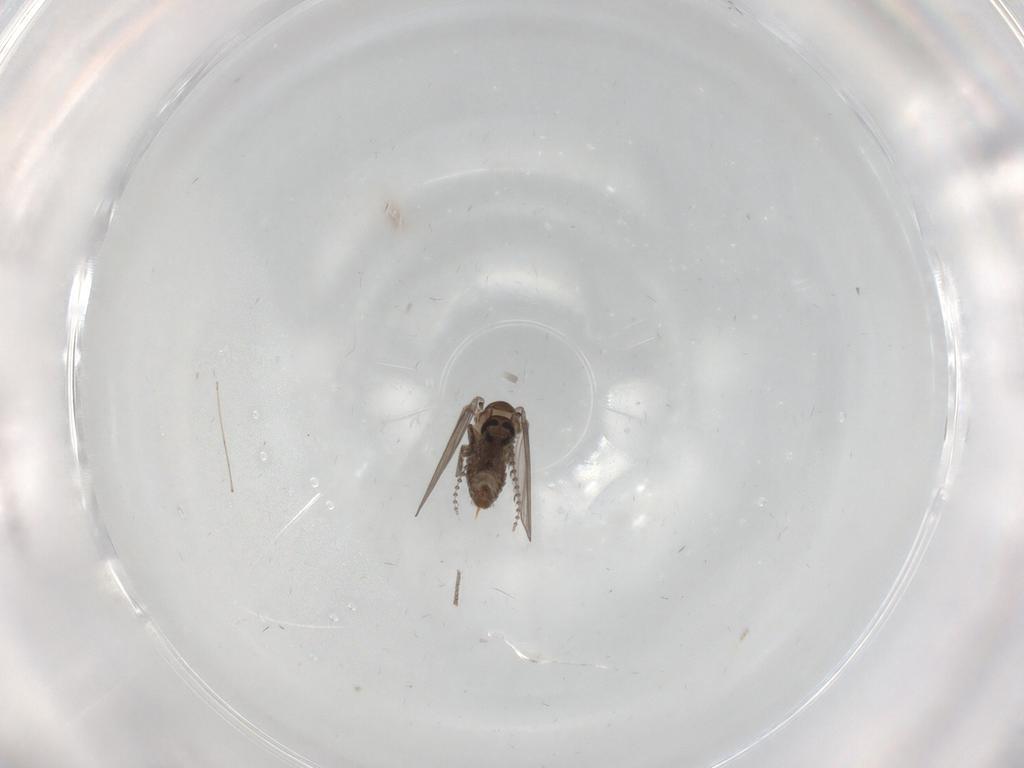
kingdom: Animalia
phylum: Arthropoda
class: Insecta
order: Diptera
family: Psychodidae
